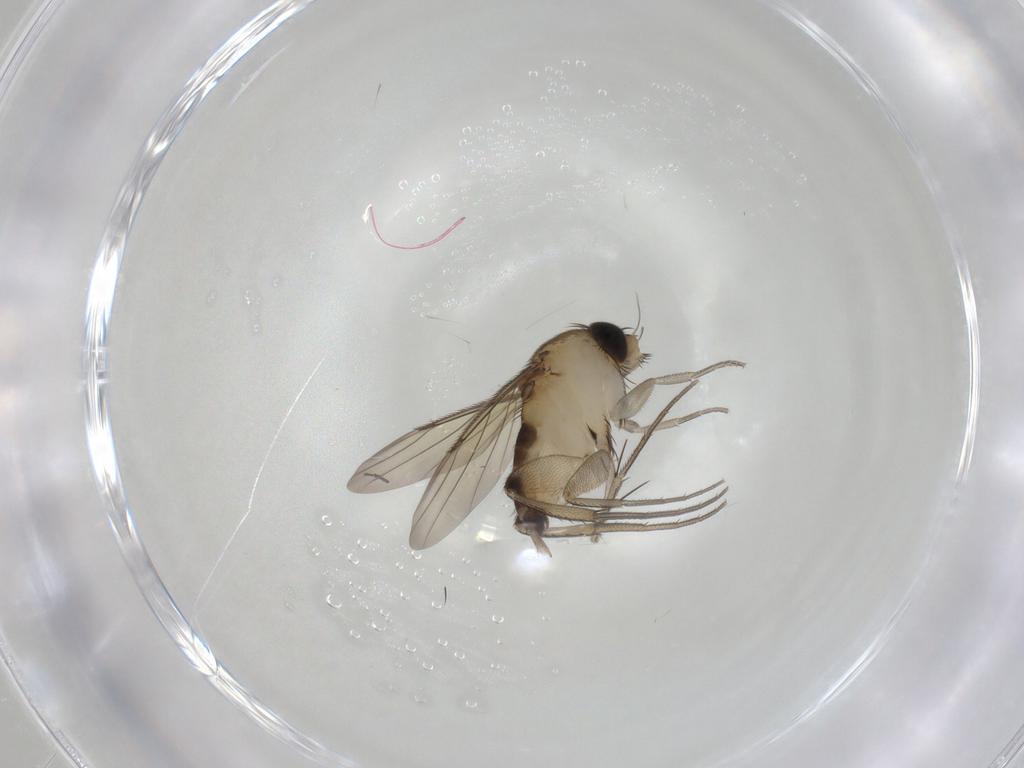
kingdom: Animalia
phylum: Arthropoda
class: Insecta
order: Diptera
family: Phoridae
